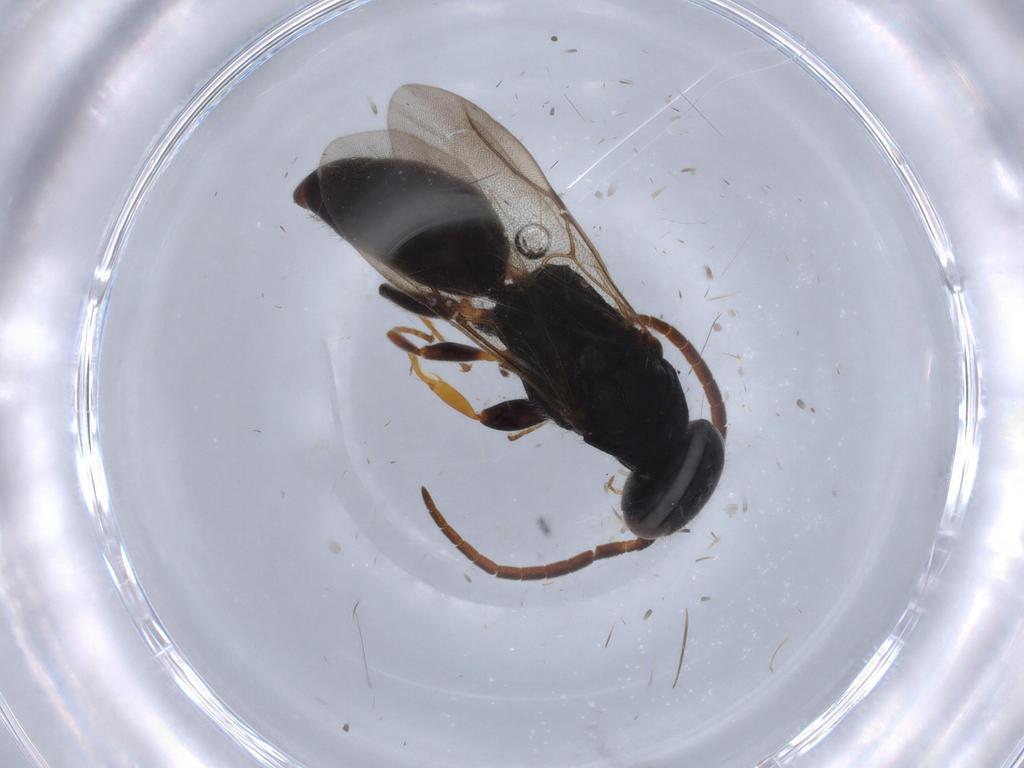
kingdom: Animalia
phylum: Arthropoda
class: Insecta
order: Hymenoptera
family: Bethylidae
